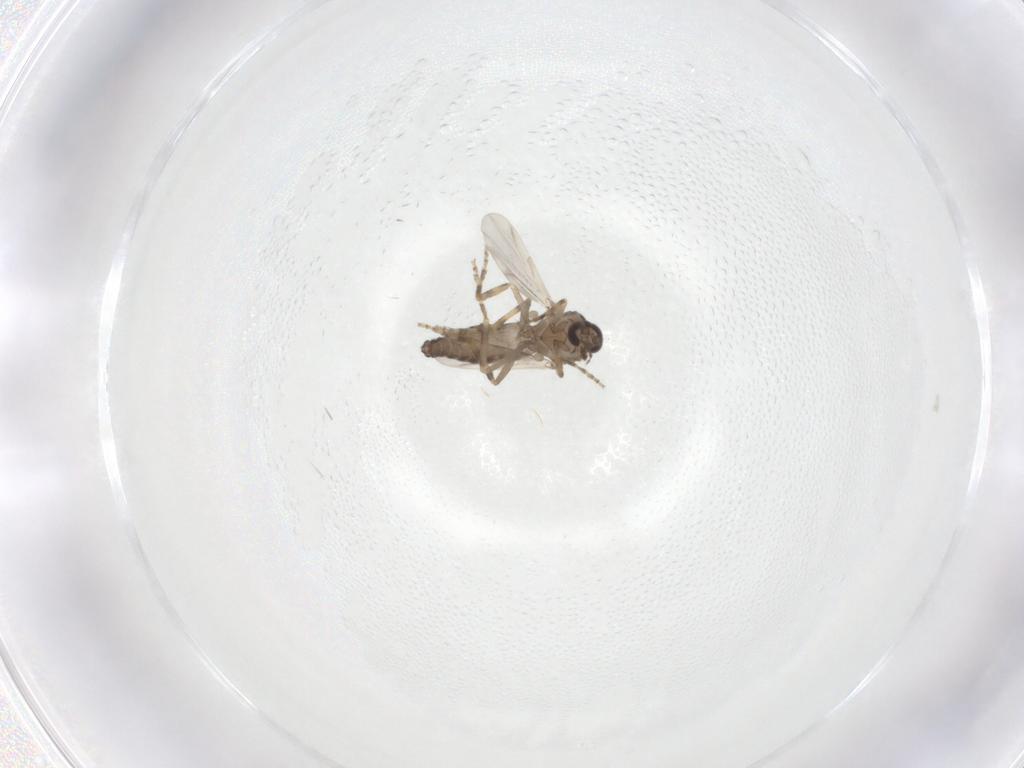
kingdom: Animalia
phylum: Arthropoda
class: Insecta
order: Diptera
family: Ceratopogonidae
